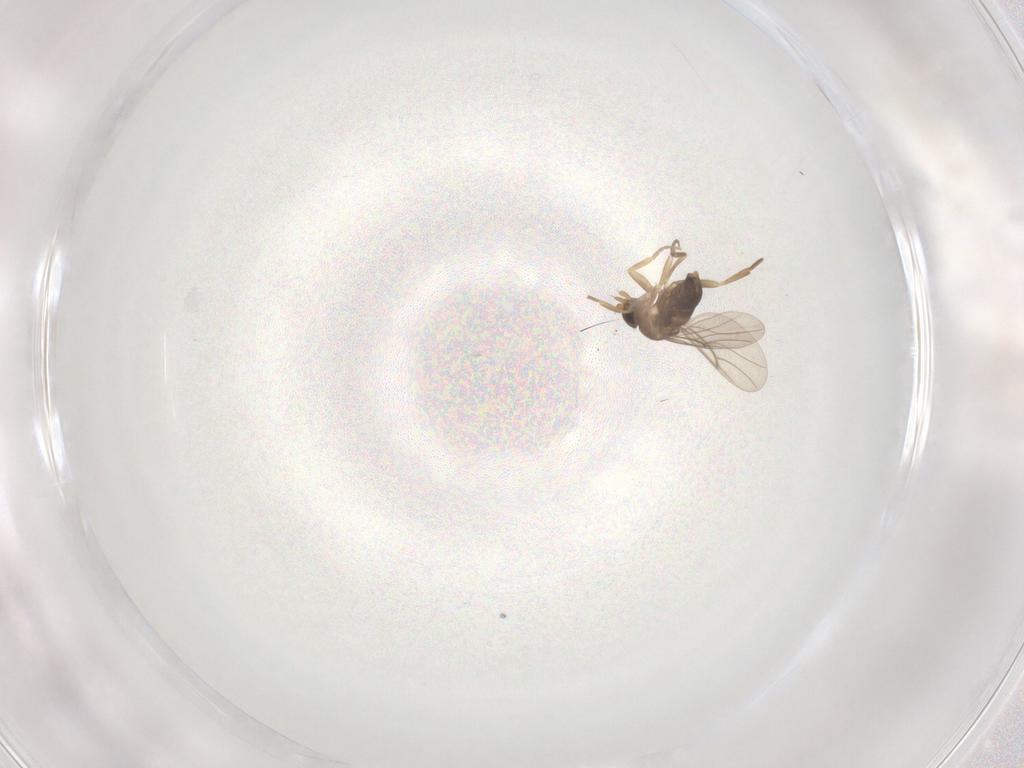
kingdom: Animalia
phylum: Arthropoda
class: Insecta
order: Diptera
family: Phoridae
